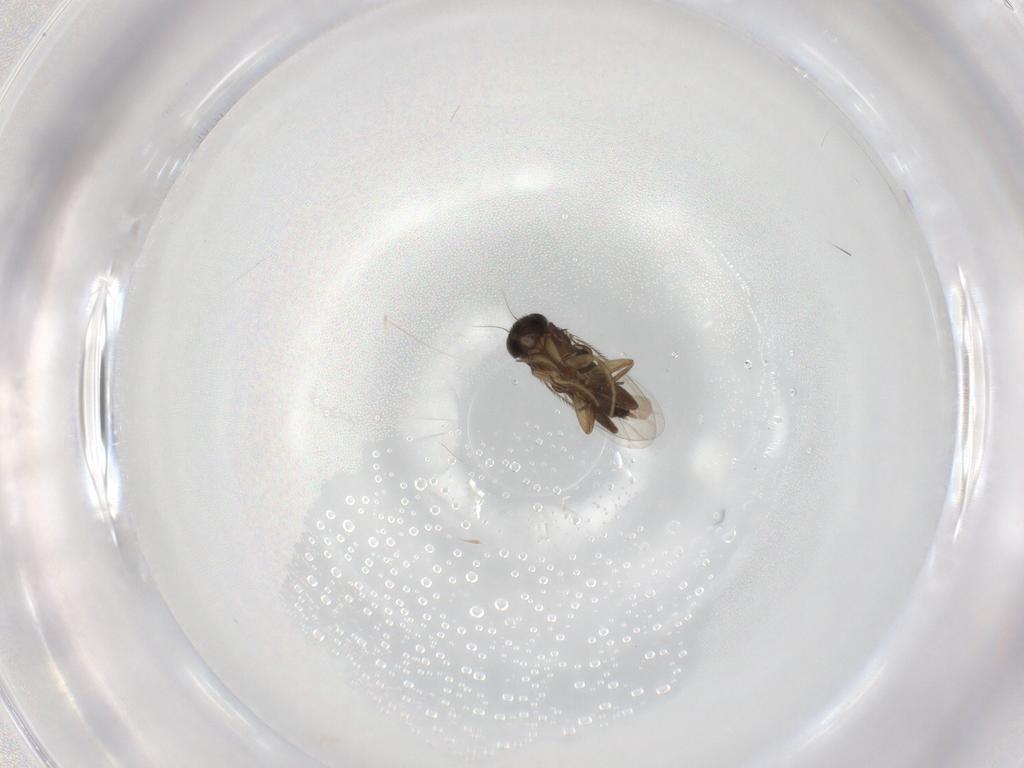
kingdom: Animalia
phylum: Arthropoda
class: Insecta
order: Diptera
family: Phoridae
